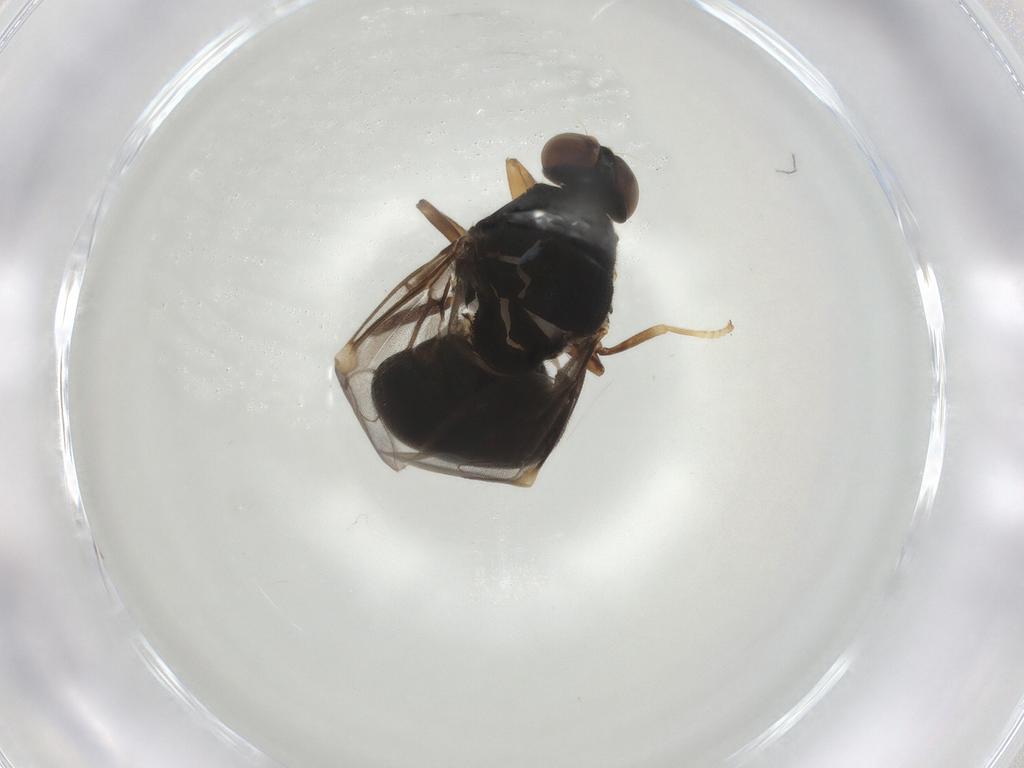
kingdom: Animalia
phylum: Arthropoda
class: Insecta
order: Diptera
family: Stratiomyidae
